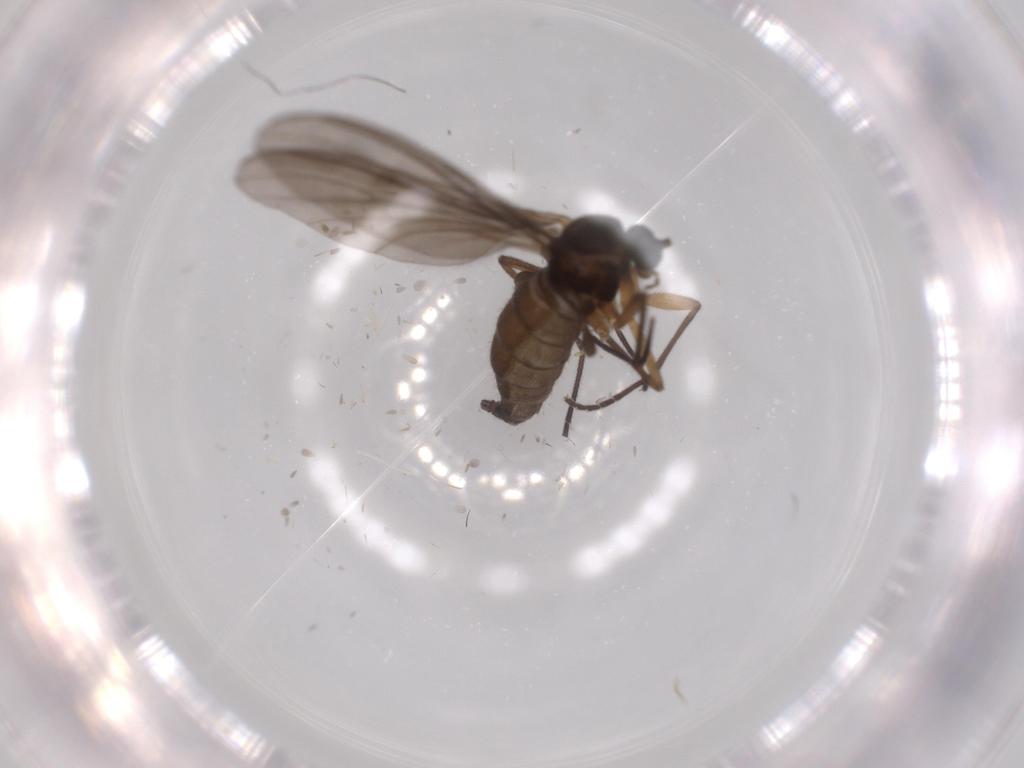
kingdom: Animalia
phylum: Arthropoda
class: Insecta
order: Diptera
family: Sciaridae
